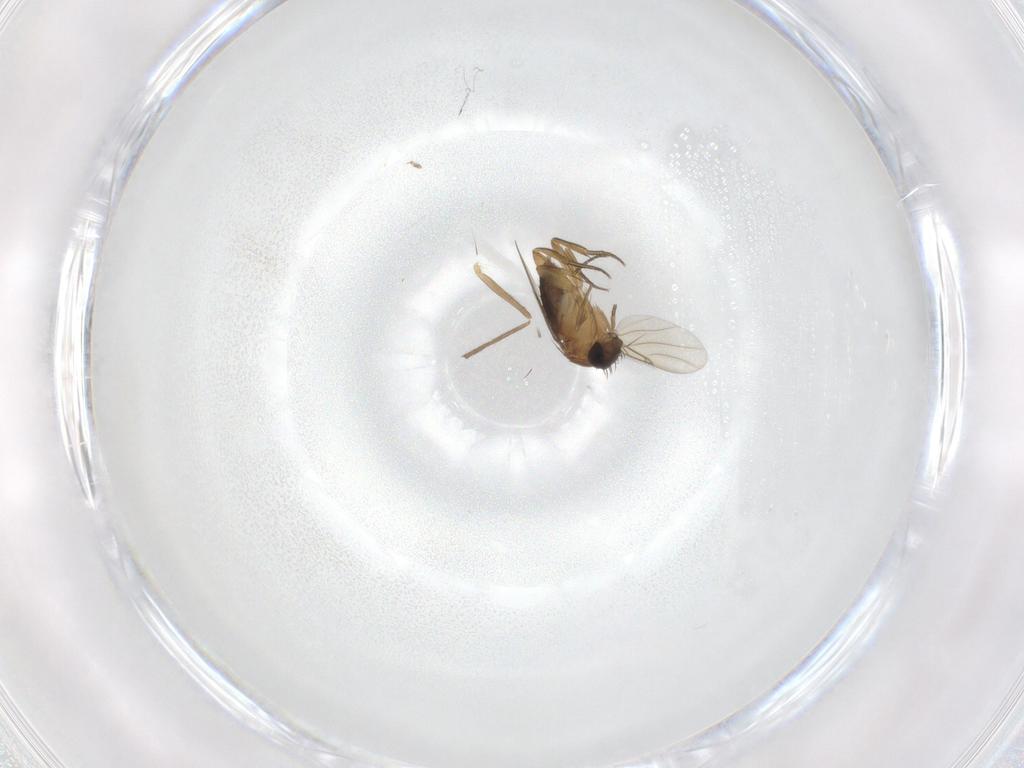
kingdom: Animalia
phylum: Arthropoda
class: Insecta
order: Diptera
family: Phoridae
